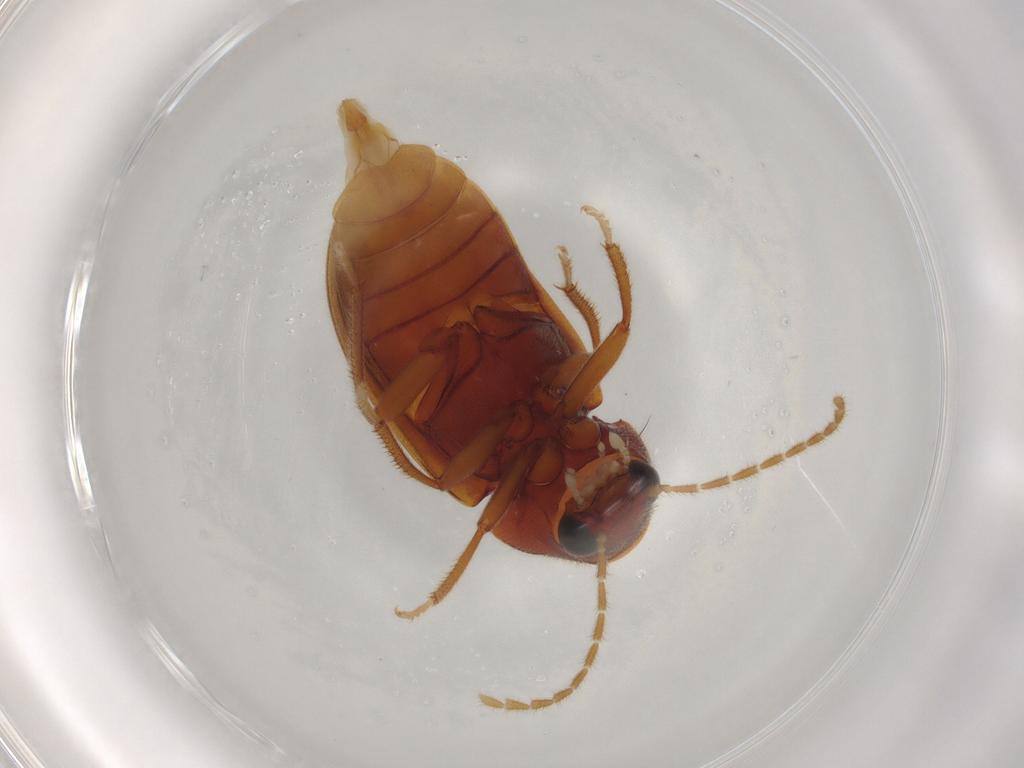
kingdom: Animalia
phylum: Arthropoda
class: Insecta
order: Coleoptera
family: Ptilodactylidae
